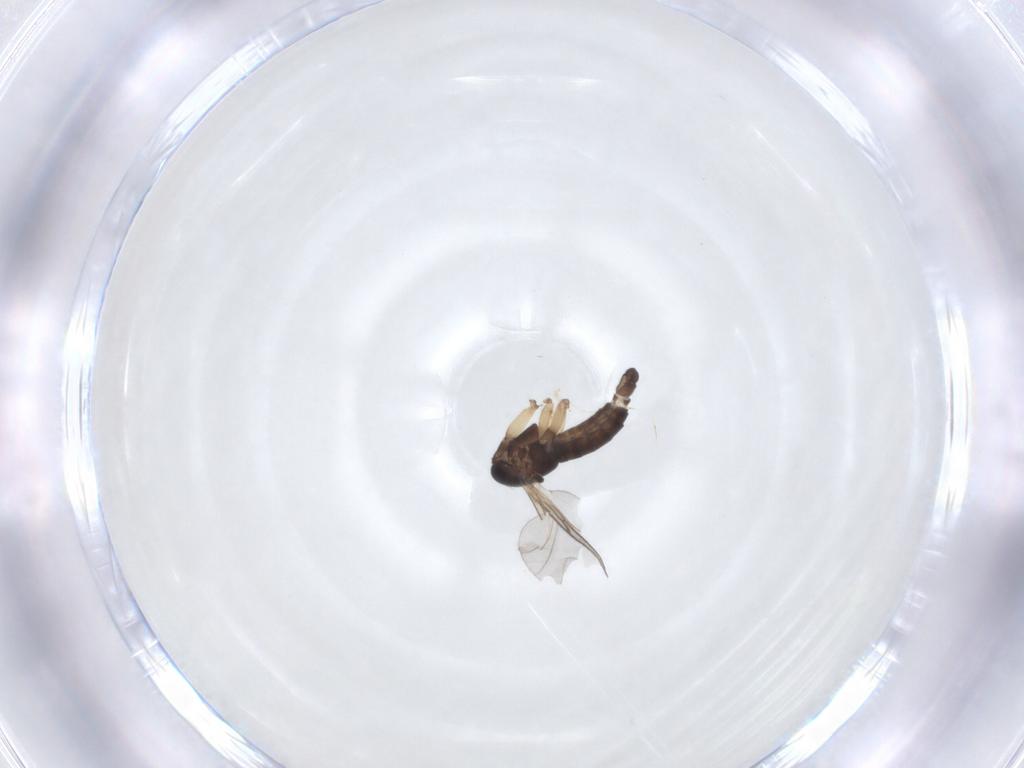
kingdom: Animalia
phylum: Arthropoda
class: Insecta
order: Diptera
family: Sciaridae
